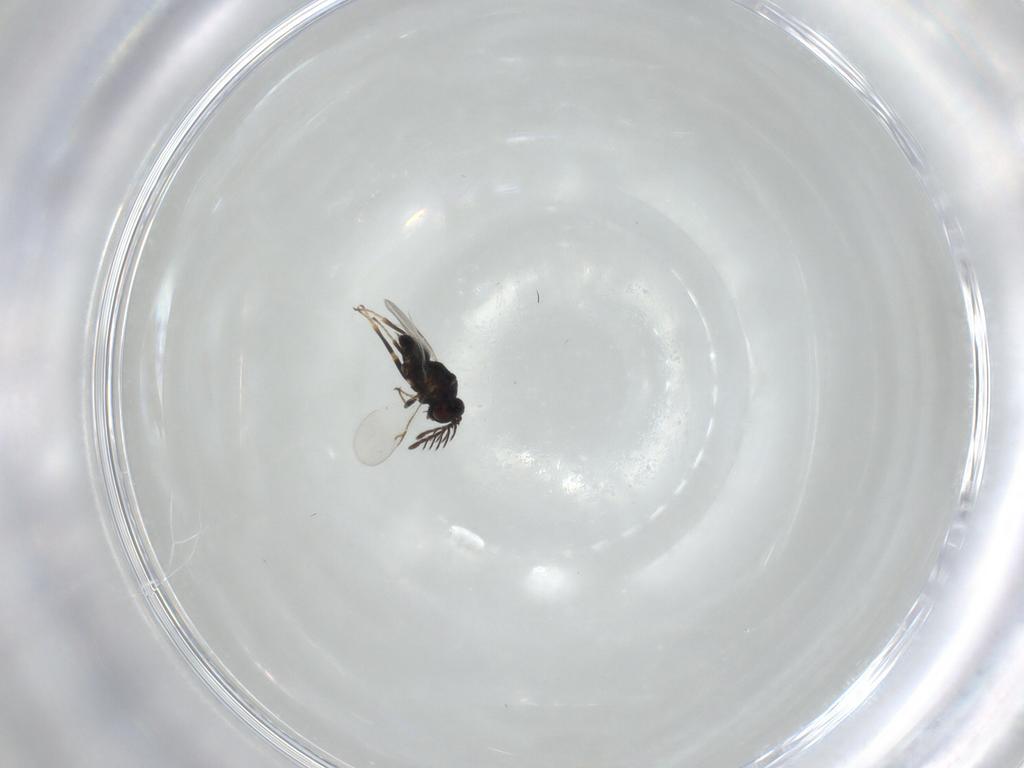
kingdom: Animalia
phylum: Arthropoda
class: Insecta
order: Hymenoptera
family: Encyrtidae
